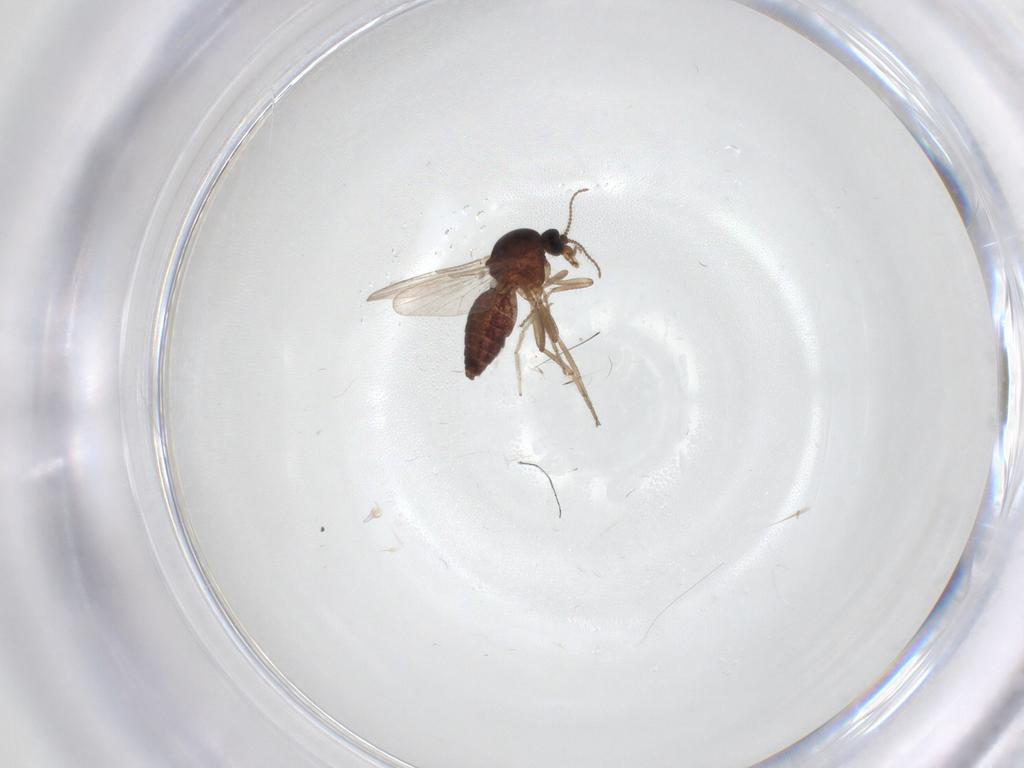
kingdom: Animalia
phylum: Arthropoda
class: Insecta
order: Diptera
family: Ceratopogonidae
